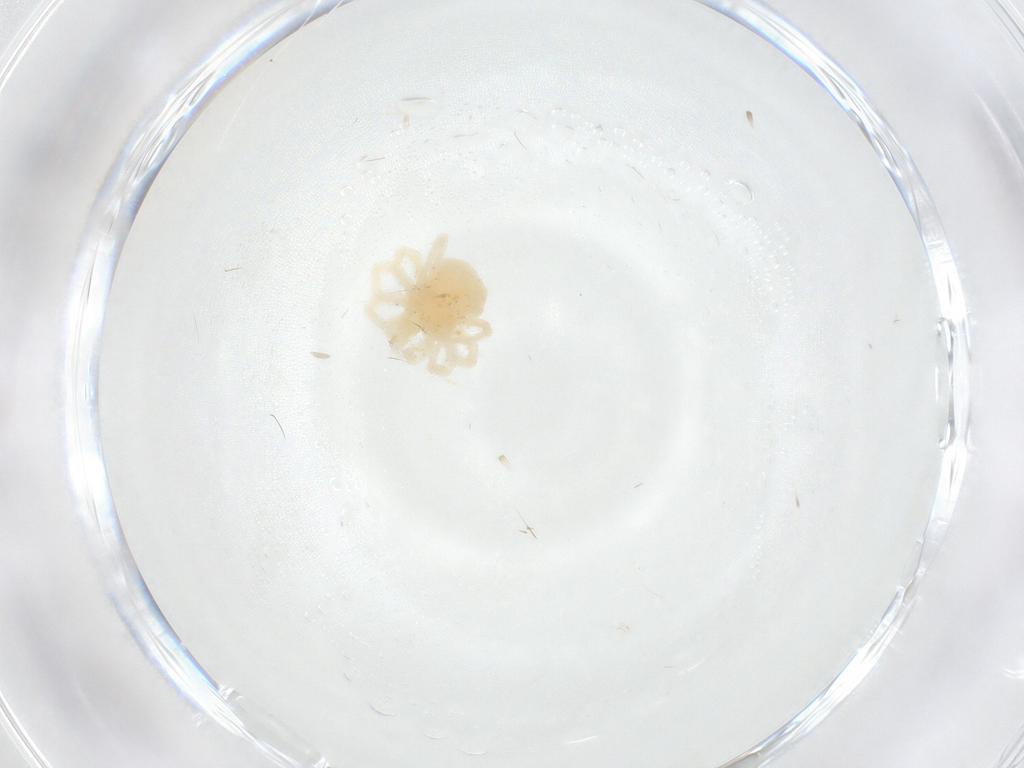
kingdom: Animalia
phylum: Arthropoda
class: Arachnida
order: Trombidiformes
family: Anystidae
